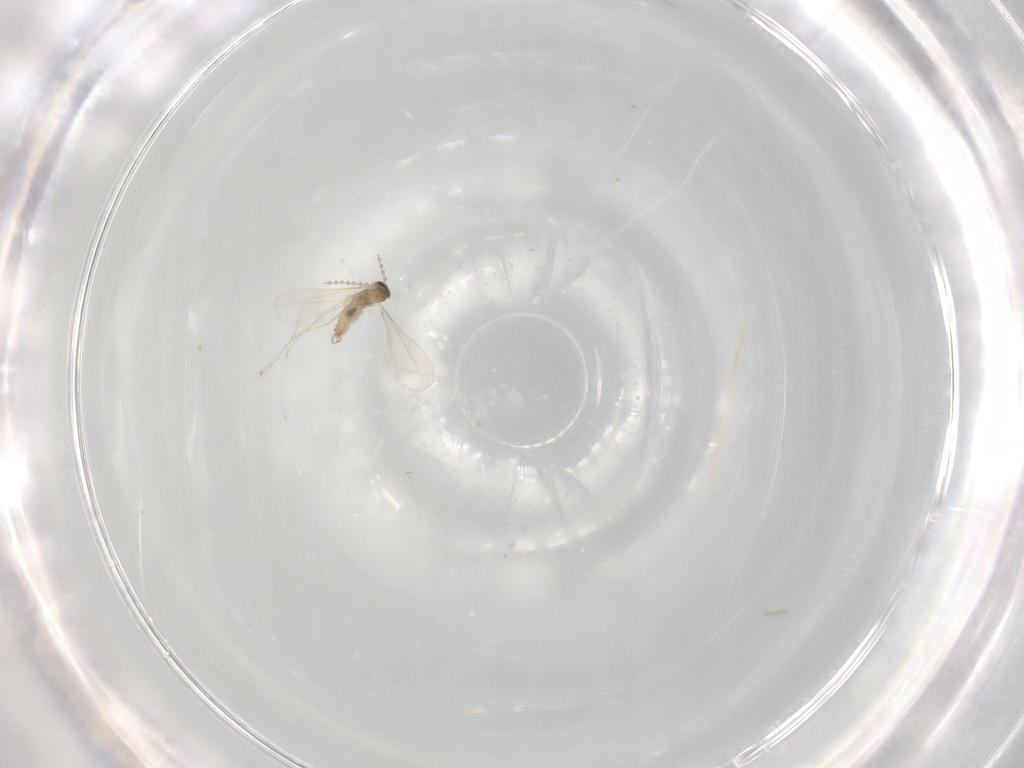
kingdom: Animalia
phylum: Arthropoda
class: Insecta
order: Diptera
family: Cecidomyiidae
